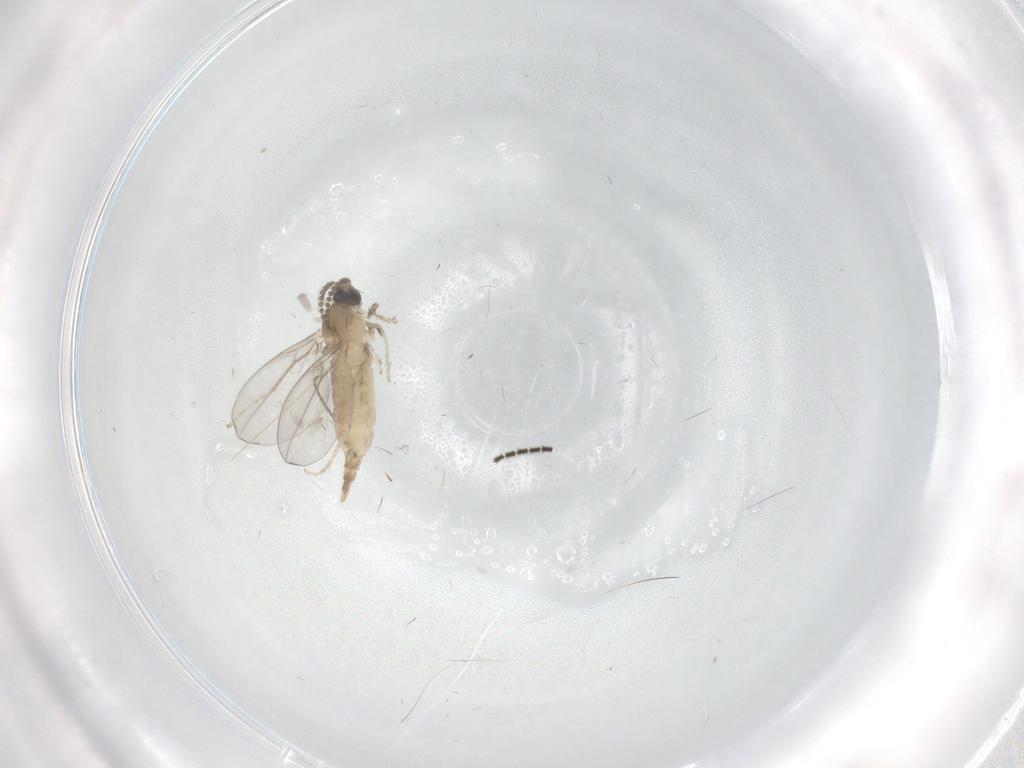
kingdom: Animalia
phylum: Arthropoda
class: Insecta
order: Diptera
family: Cecidomyiidae
